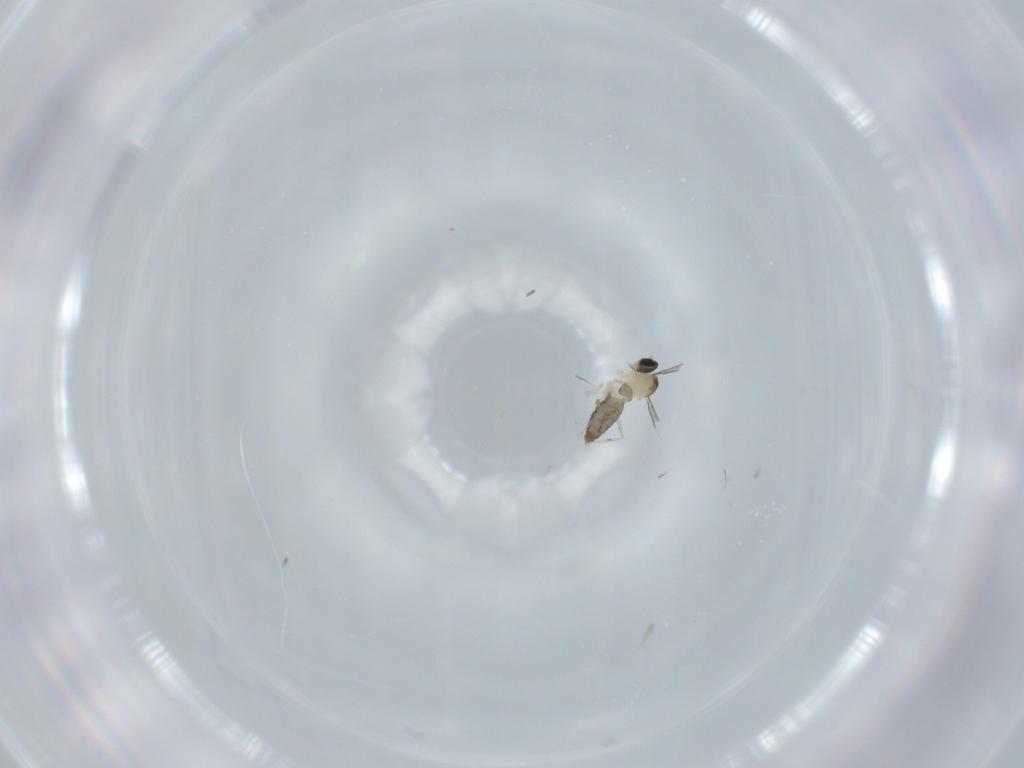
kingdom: Animalia
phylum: Arthropoda
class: Insecta
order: Diptera
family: Cecidomyiidae
